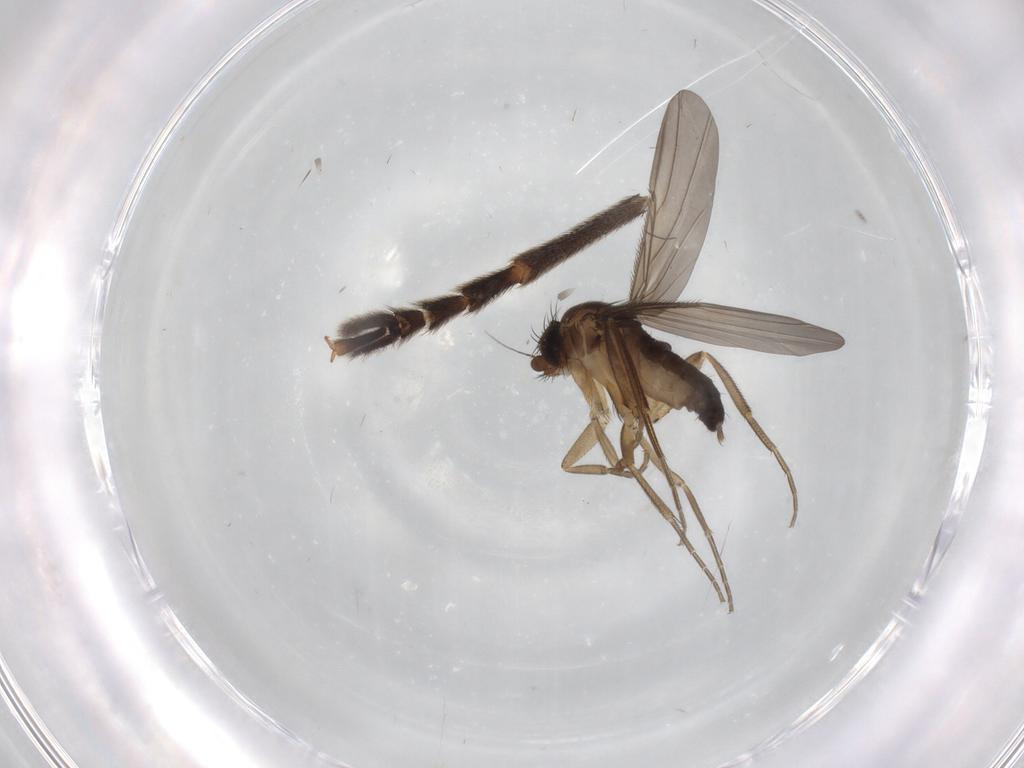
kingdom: Animalia
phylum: Arthropoda
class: Insecta
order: Diptera
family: Phoridae
